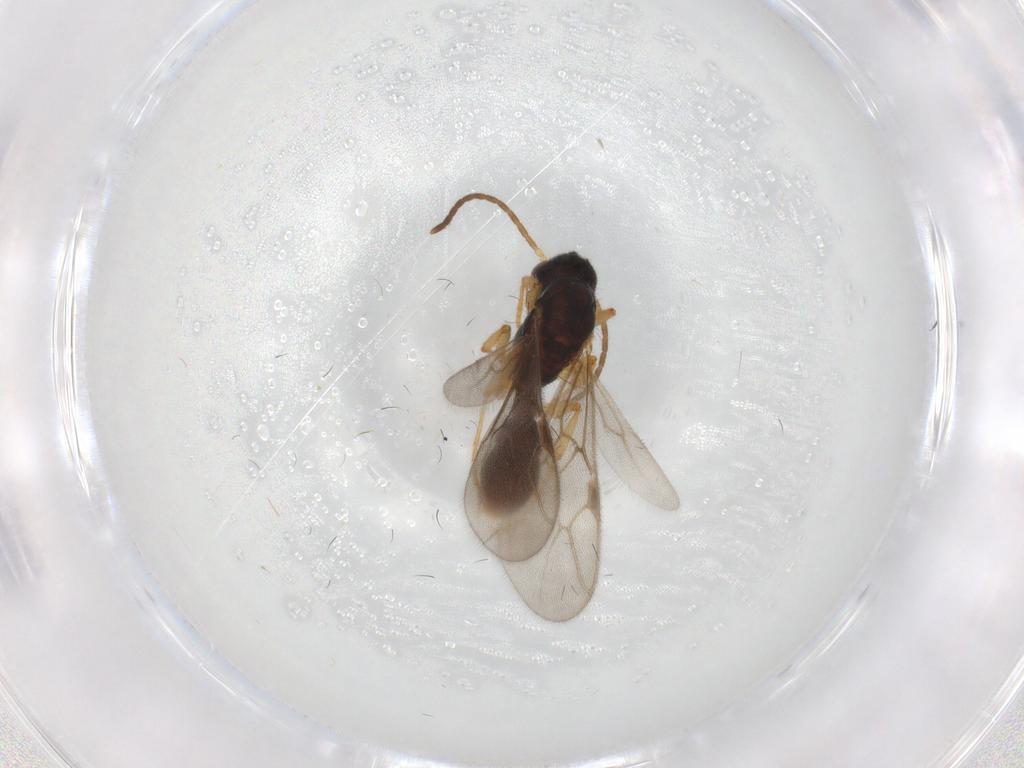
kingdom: Animalia
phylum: Arthropoda
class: Insecta
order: Hymenoptera
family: Formicidae
